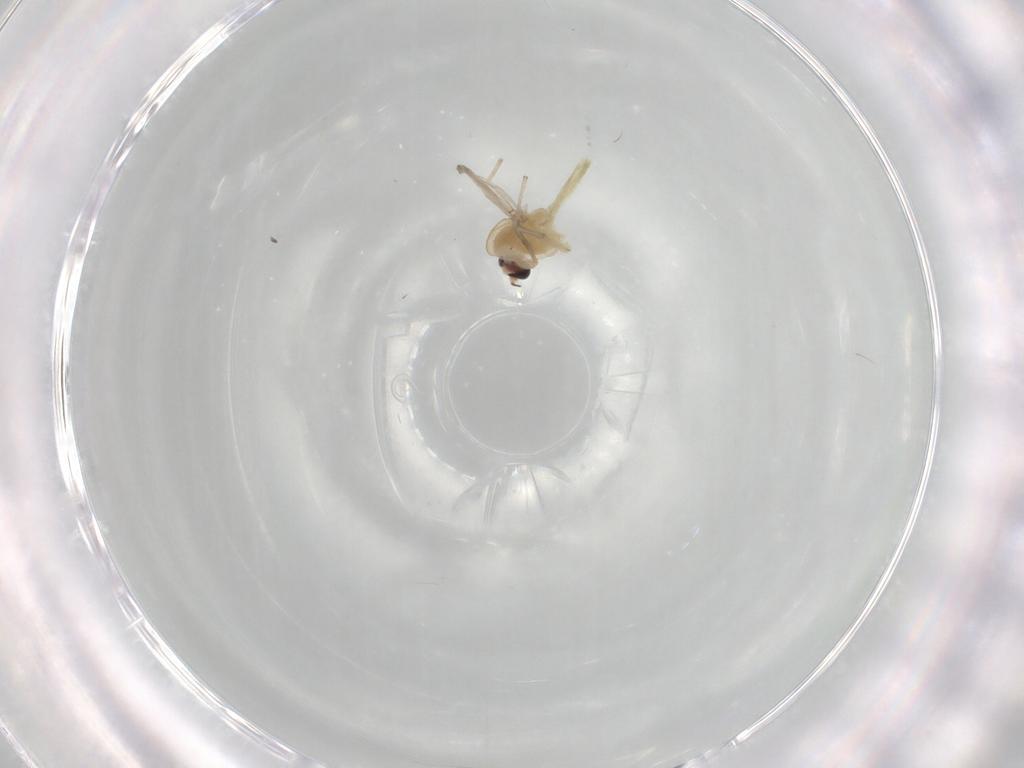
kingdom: Animalia
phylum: Arthropoda
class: Insecta
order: Diptera
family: Chironomidae
